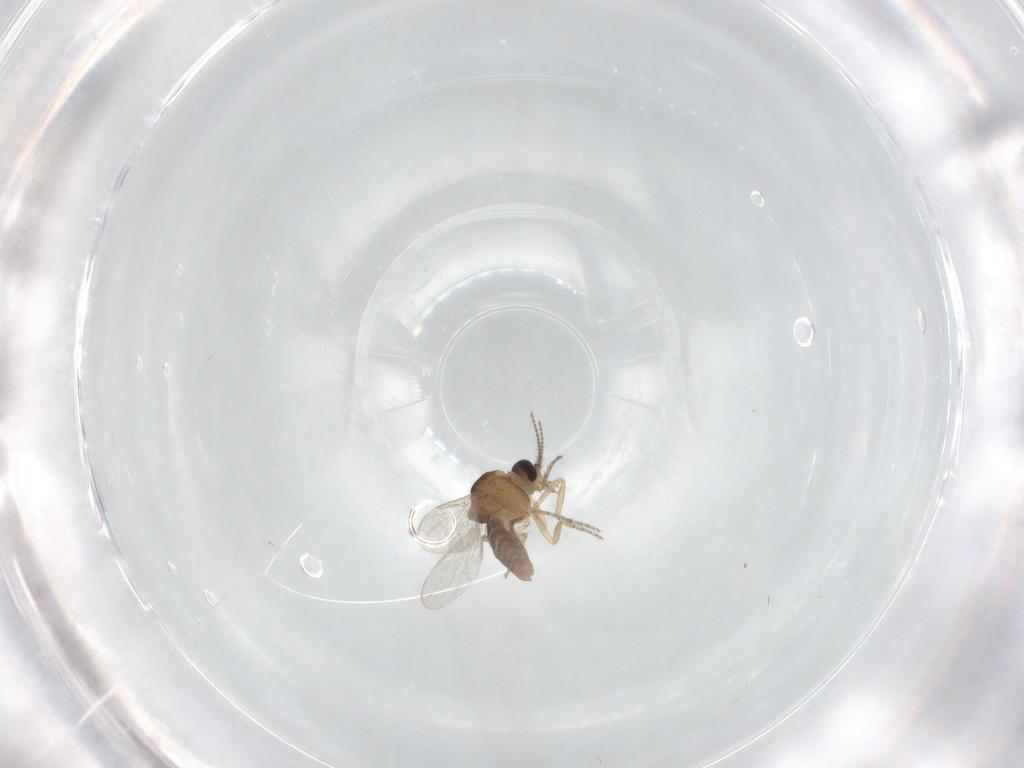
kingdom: Animalia
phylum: Arthropoda
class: Insecta
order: Diptera
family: Ceratopogonidae
